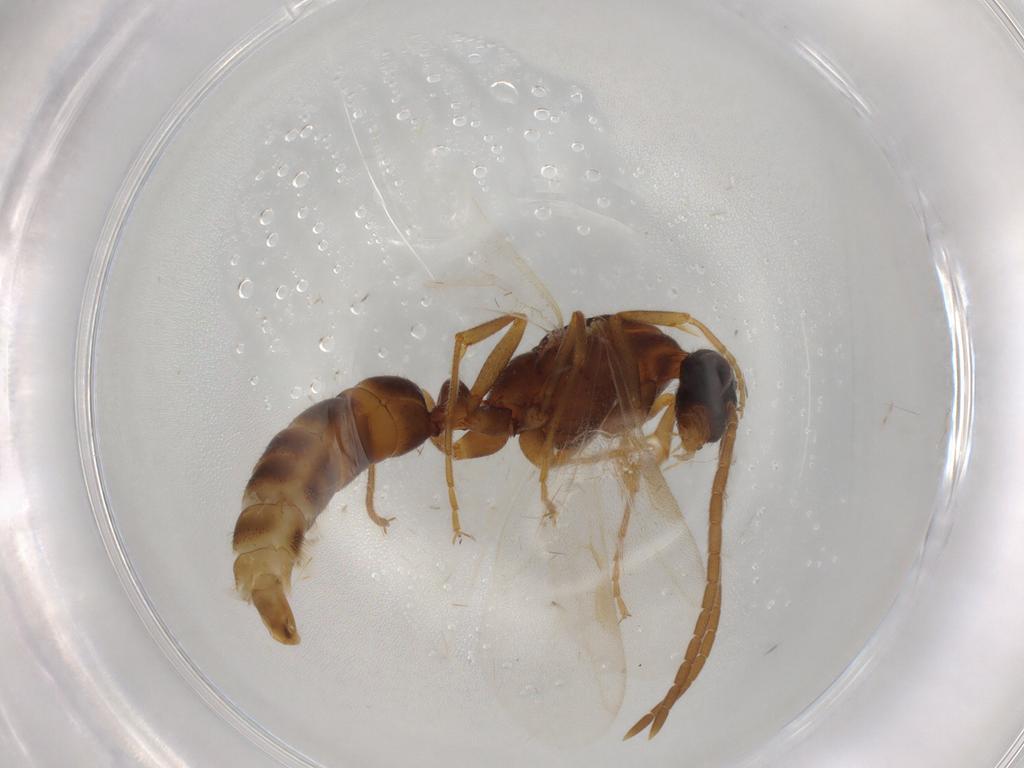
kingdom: Animalia
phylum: Arthropoda
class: Insecta
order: Hymenoptera
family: Formicidae
